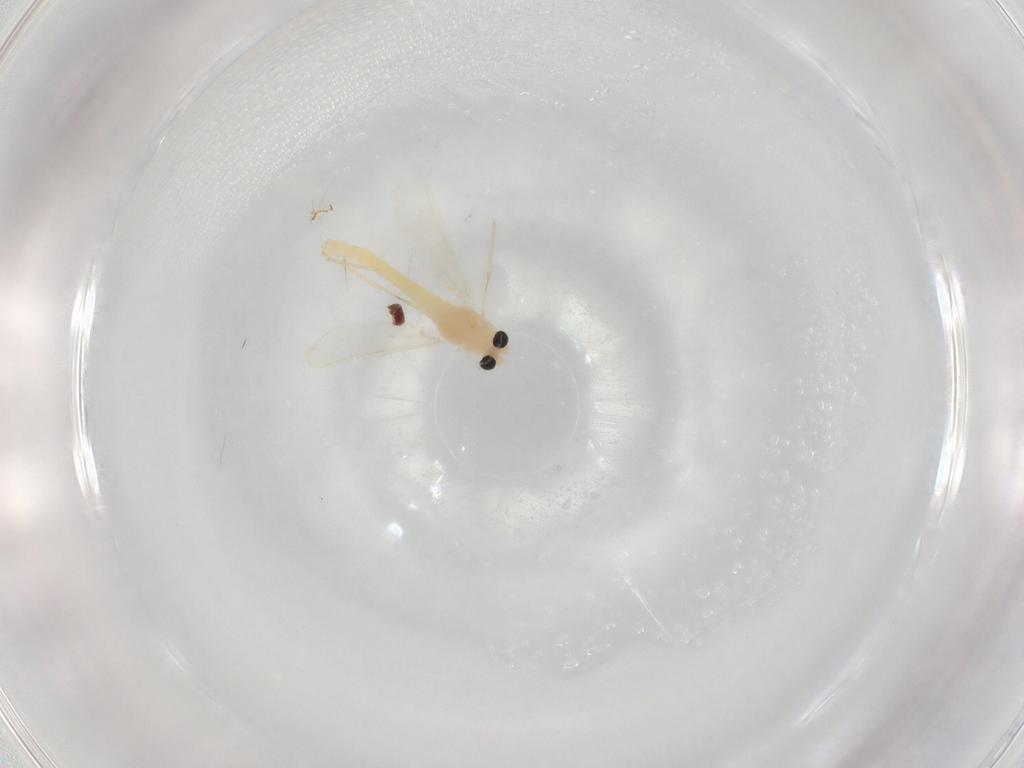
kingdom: Animalia
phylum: Arthropoda
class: Insecta
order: Diptera
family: Chironomidae
